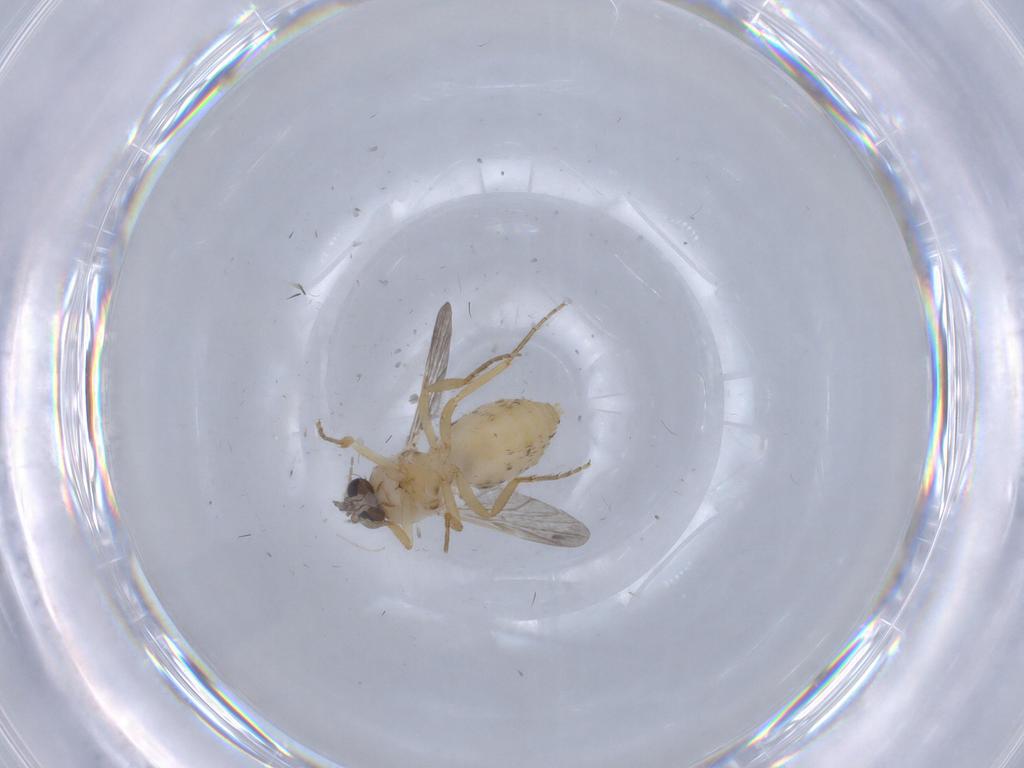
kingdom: Animalia
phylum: Arthropoda
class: Insecta
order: Diptera
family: Ceratopogonidae
